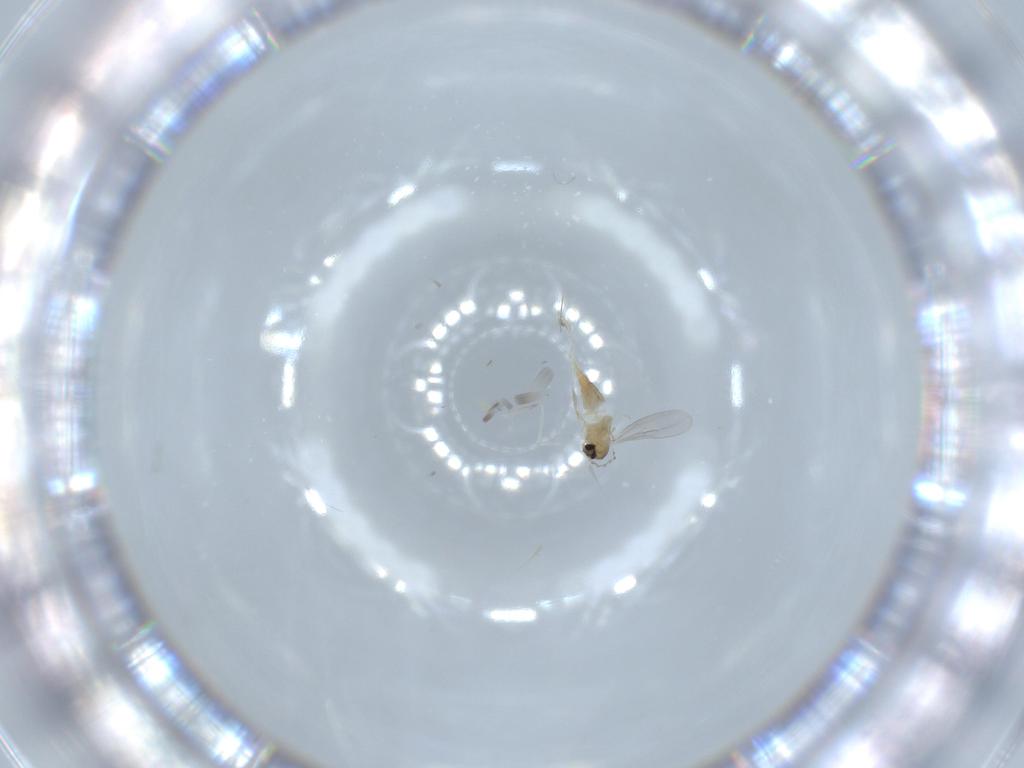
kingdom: Animalia
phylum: Arthropoda
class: Insecta
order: Diptera
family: Cecidomyiidae
